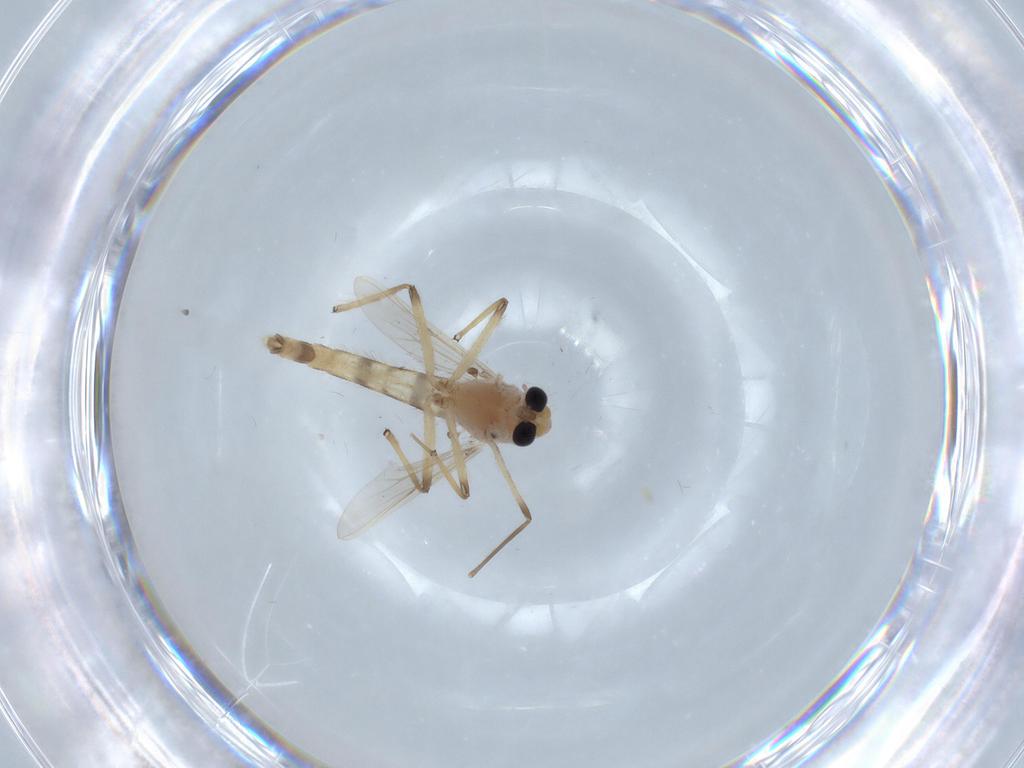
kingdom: Animalia
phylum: Arthropoda
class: Insecta
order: Diptera
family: Chironomidae
